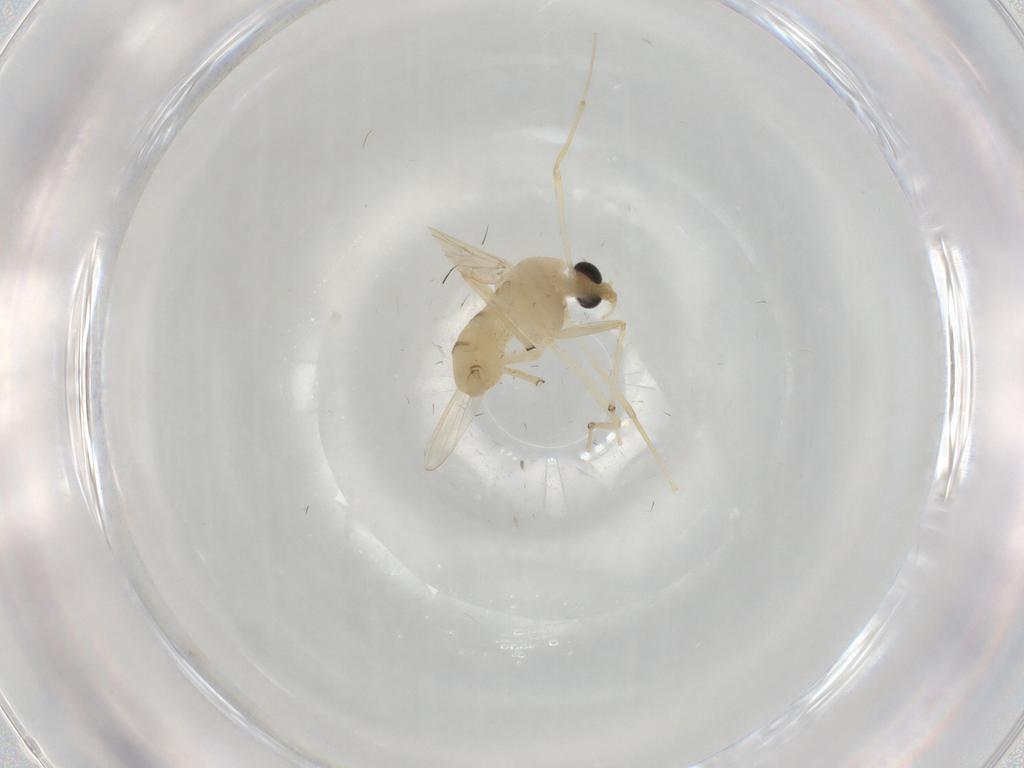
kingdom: Animalia
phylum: Arthropoda
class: Insecta
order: Diptera
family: Chironomidae
